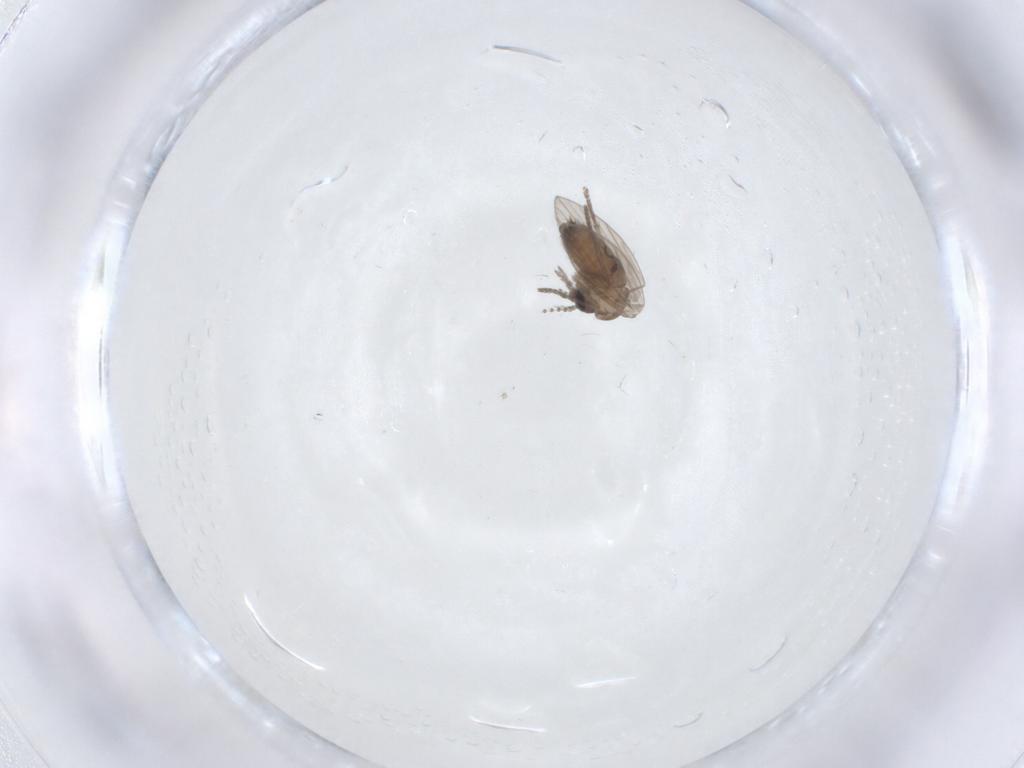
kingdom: Animalia
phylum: Arthropoda
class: Insecta
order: Diptera
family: Psychodidae
